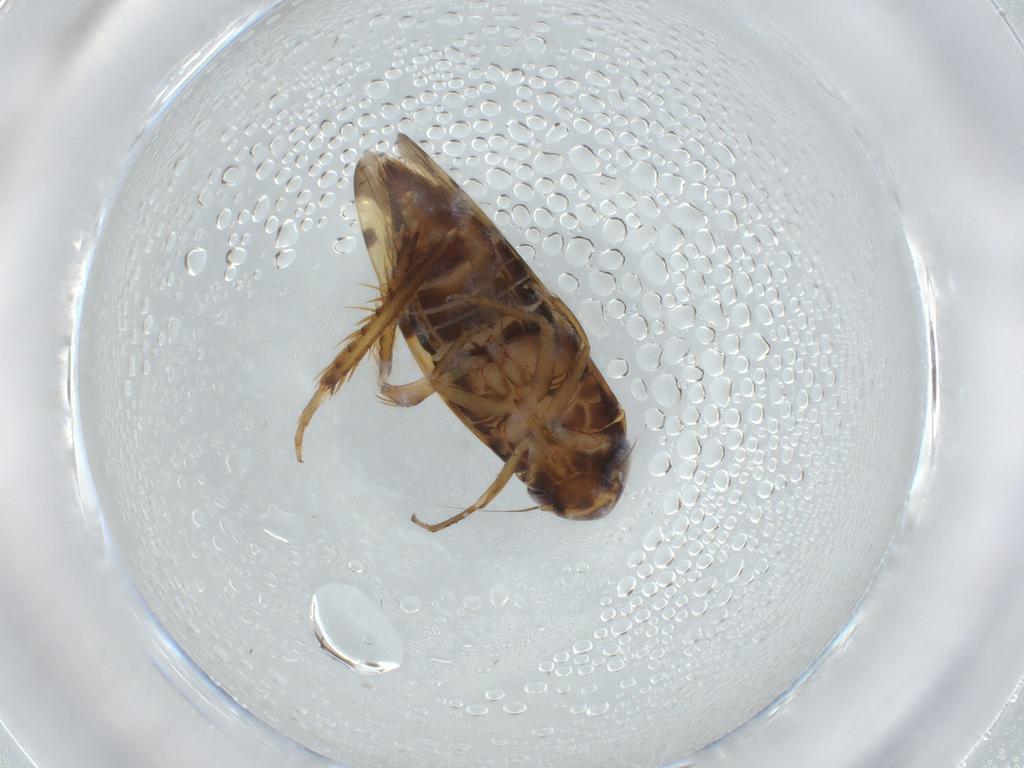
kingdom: Animalia
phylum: Arthropoda
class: Insecta
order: Hemiptera
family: Cicadellidae
